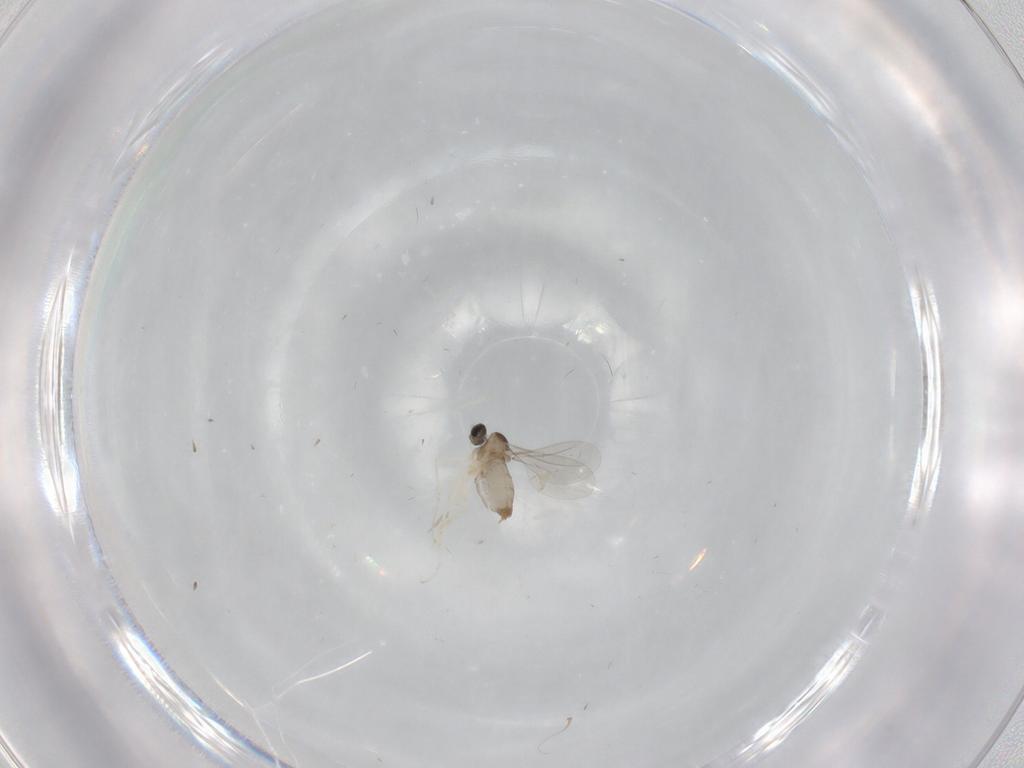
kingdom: Animalia
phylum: Arthropoda
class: Insecta
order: Diptera
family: Cecidomyiidae
